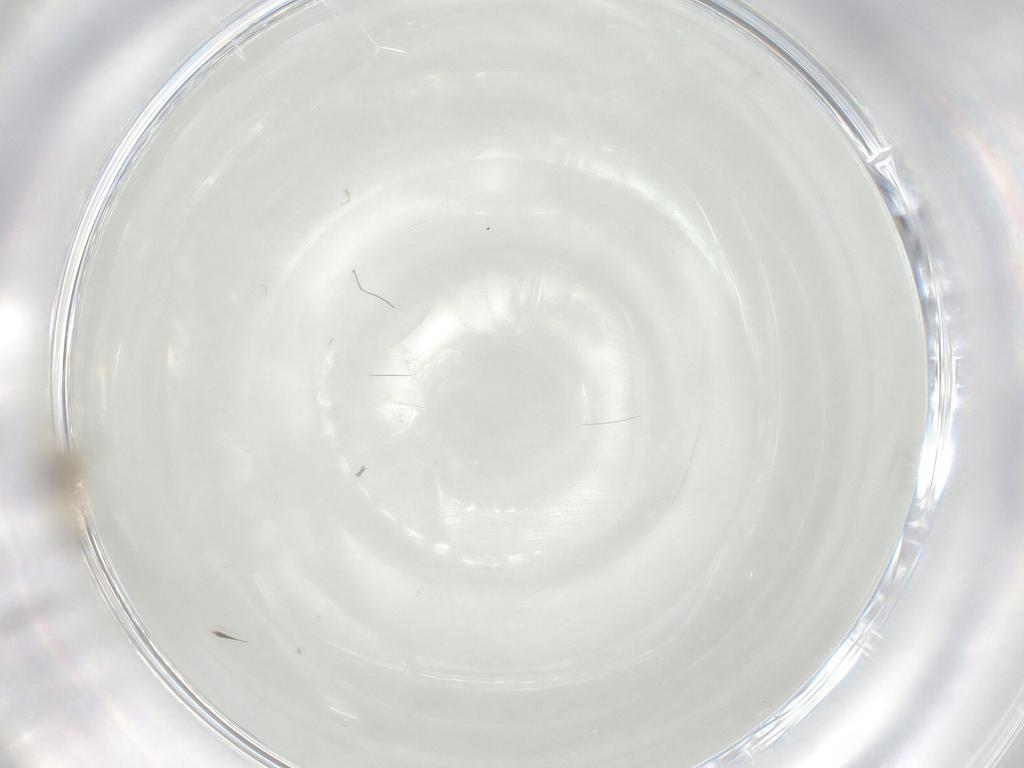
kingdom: Animalia
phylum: Arthropoda
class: Insecta
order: Diptera
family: Cecidomyiidae
